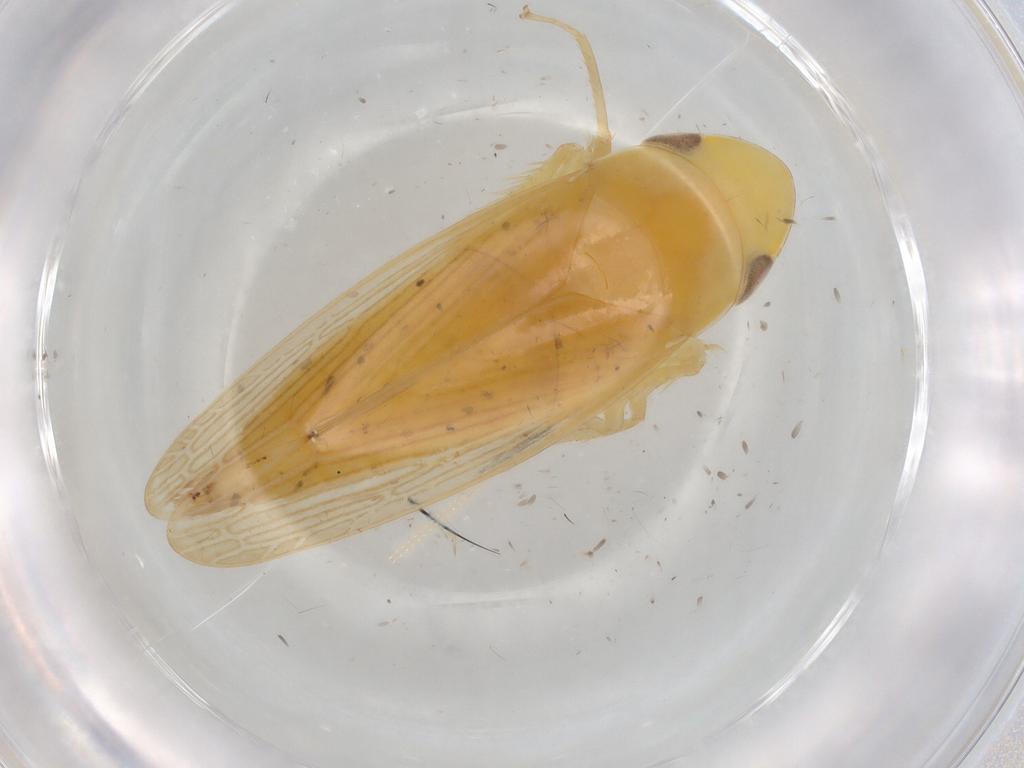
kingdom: Animalia
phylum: Arthropoda
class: Insecta
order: Hemiptera
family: Cicadellidae
